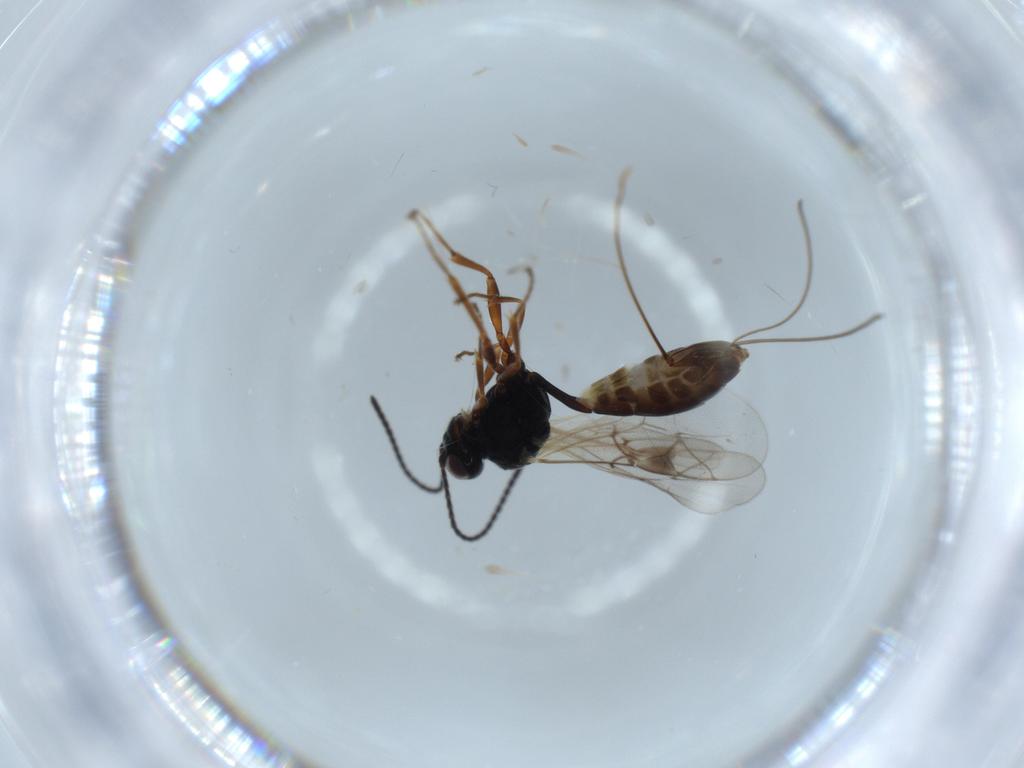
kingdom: Animalia
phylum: Arthropoda
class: Insecta
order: Hymenoptera
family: Ichneumonidae
